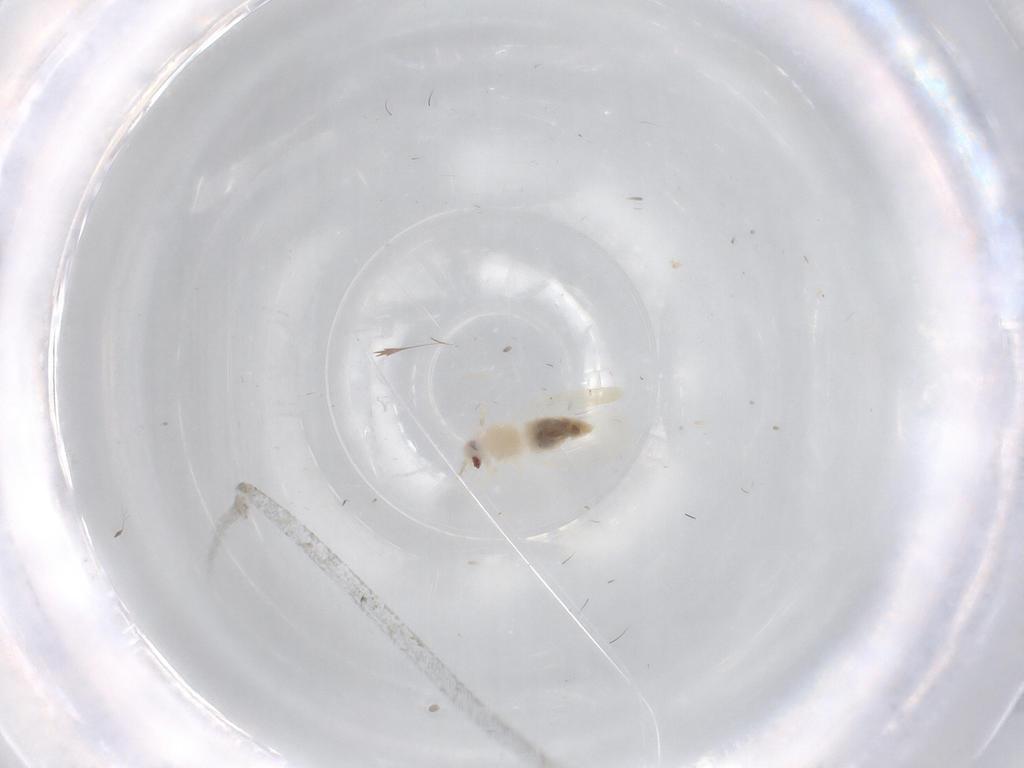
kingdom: Animalia
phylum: Arthropoda
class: Insecta
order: Hemiptera
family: Aleyrodidae
